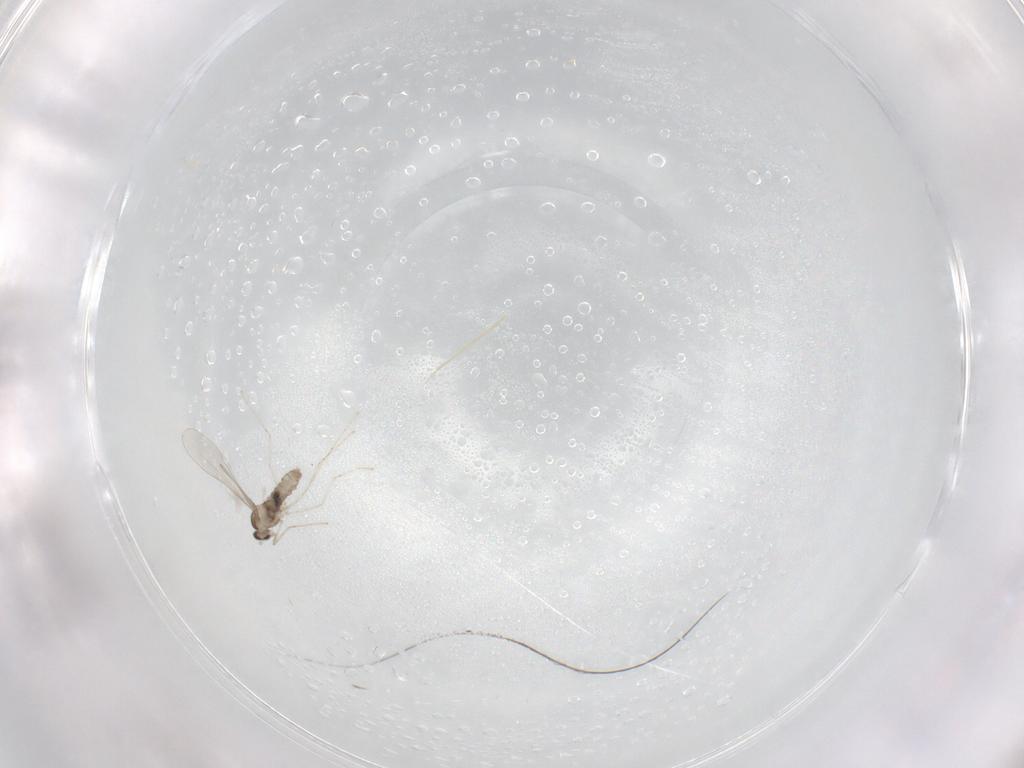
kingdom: Animalia
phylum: Arthropoda
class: Insecta
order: Diptera
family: Cecidomyiidae
